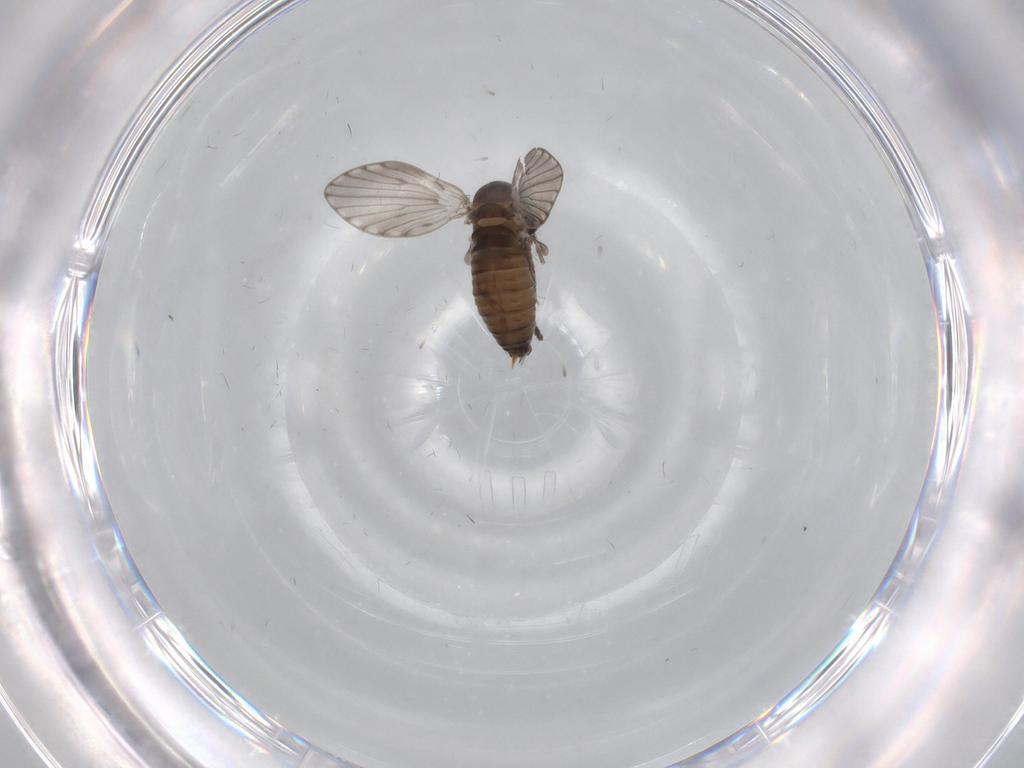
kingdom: Animalia
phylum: Arthropoda
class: Insecta
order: Diptera
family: Psychodidae
